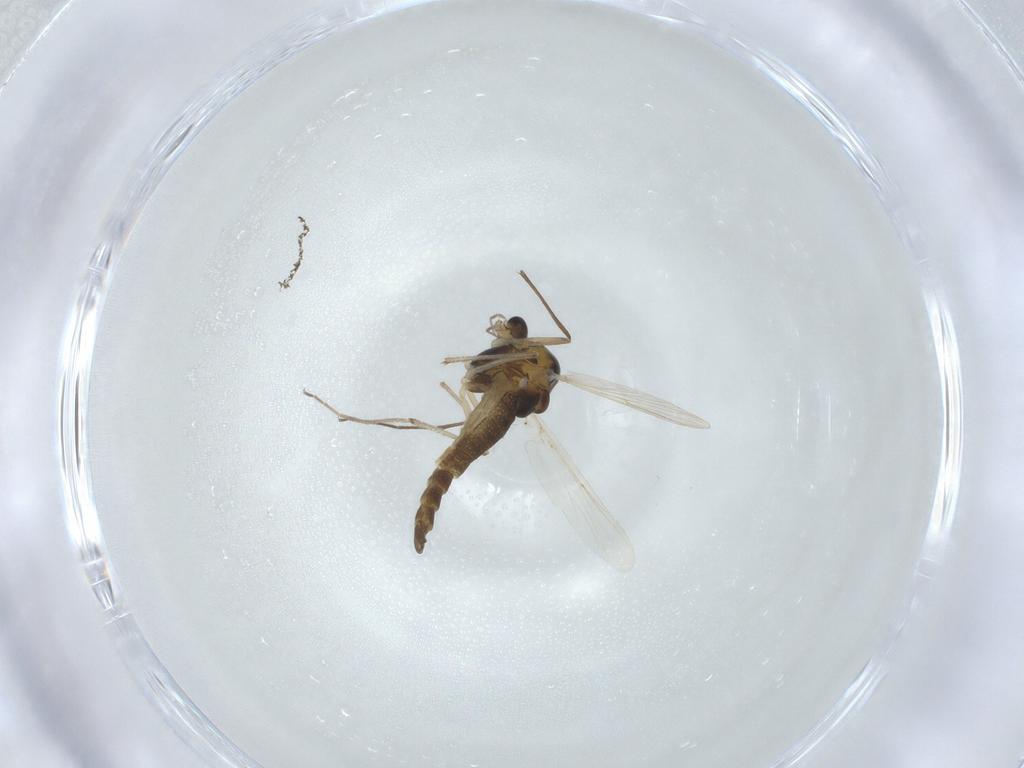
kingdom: Animalia
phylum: Arthropoda
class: Insecta
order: Diptera
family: Chironomidae
